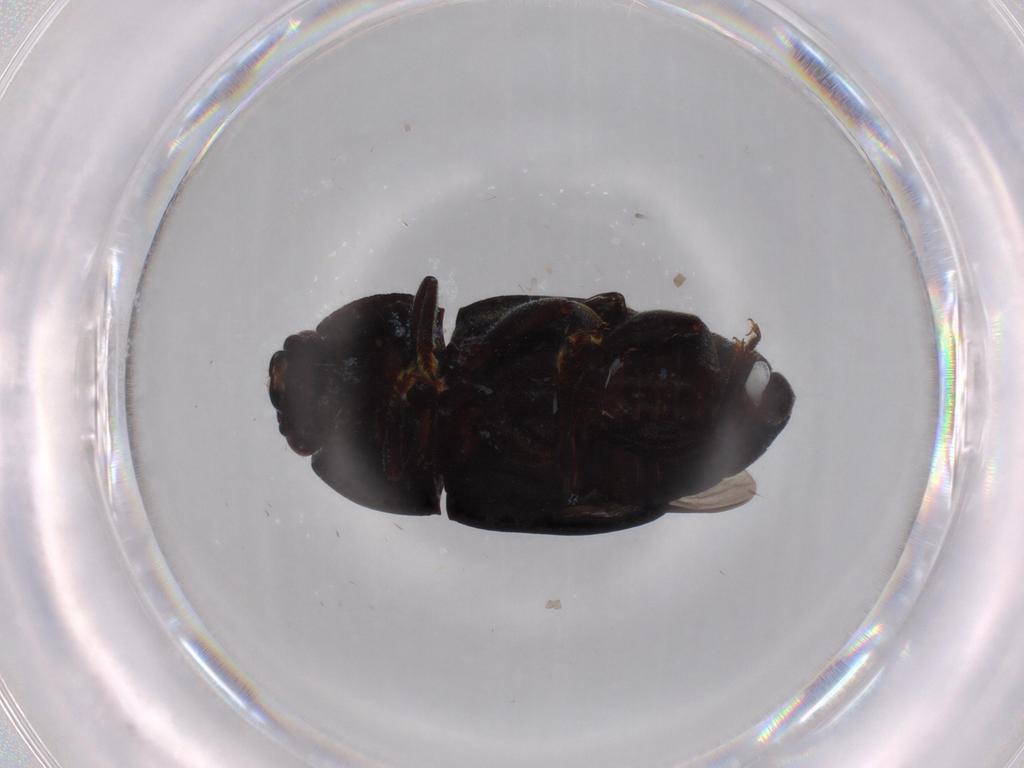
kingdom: Animalia
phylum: Arthropoda
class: Insecta
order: Coleoptera
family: Nitidulidae
